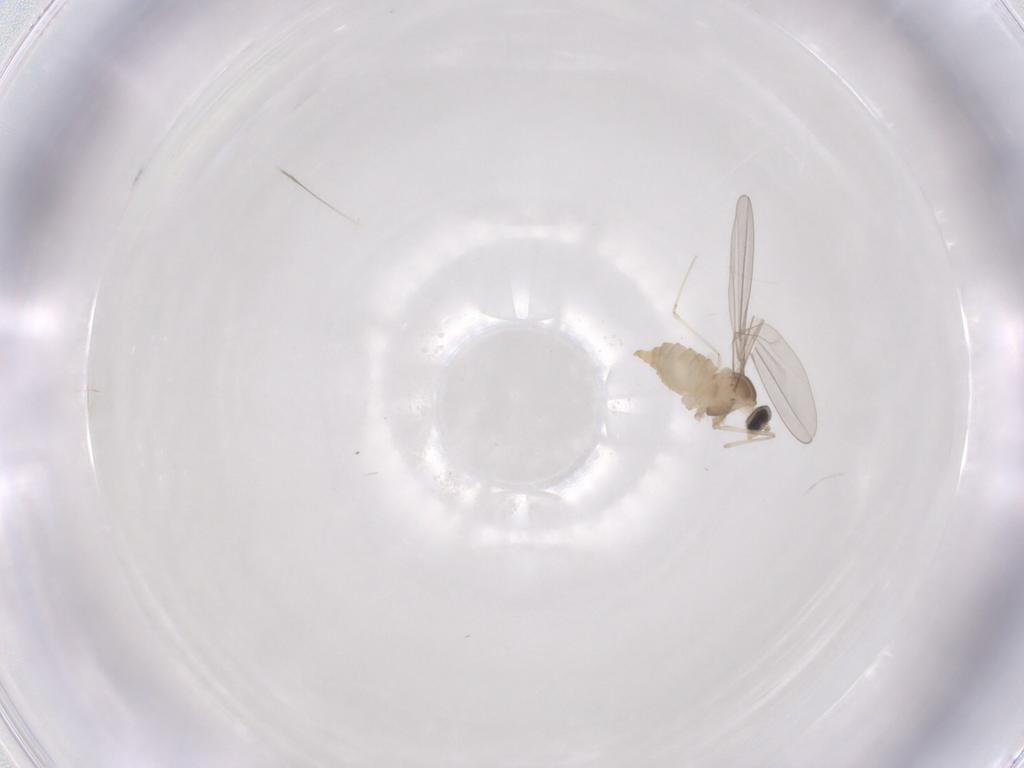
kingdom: Animalia
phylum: Arthropoda
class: Insecta
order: Diptera
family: Cecidomyiidae
